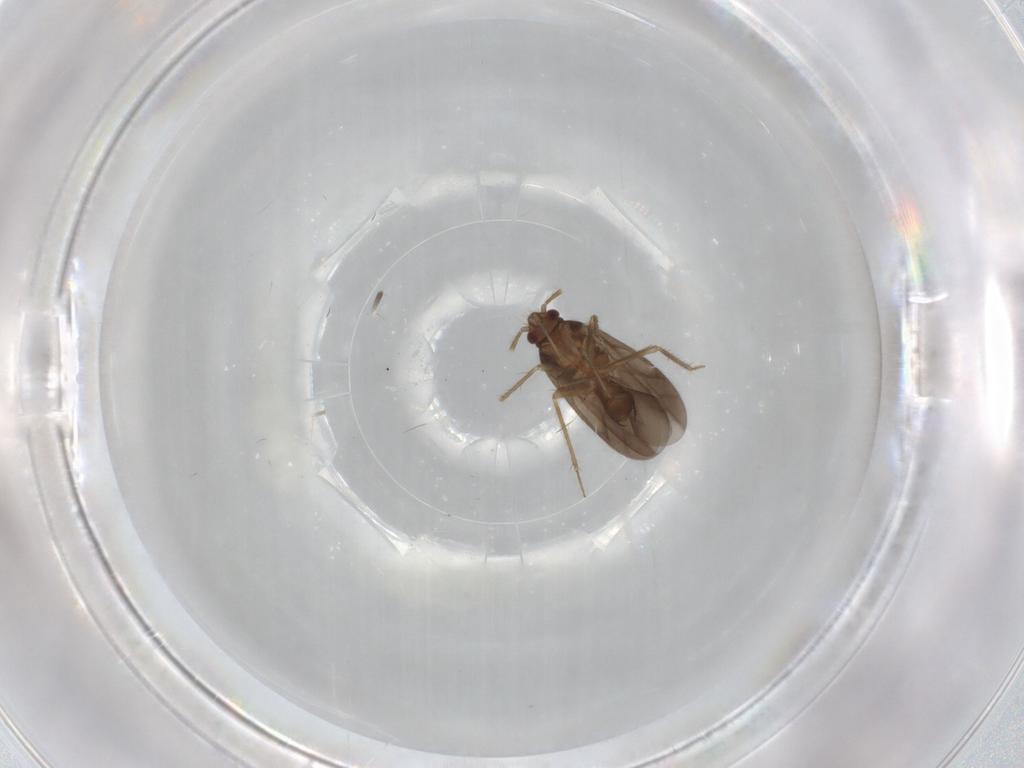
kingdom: Animalia
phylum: Arthropoda
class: Insecta
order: Hemiptera
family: Ceratocombidae
